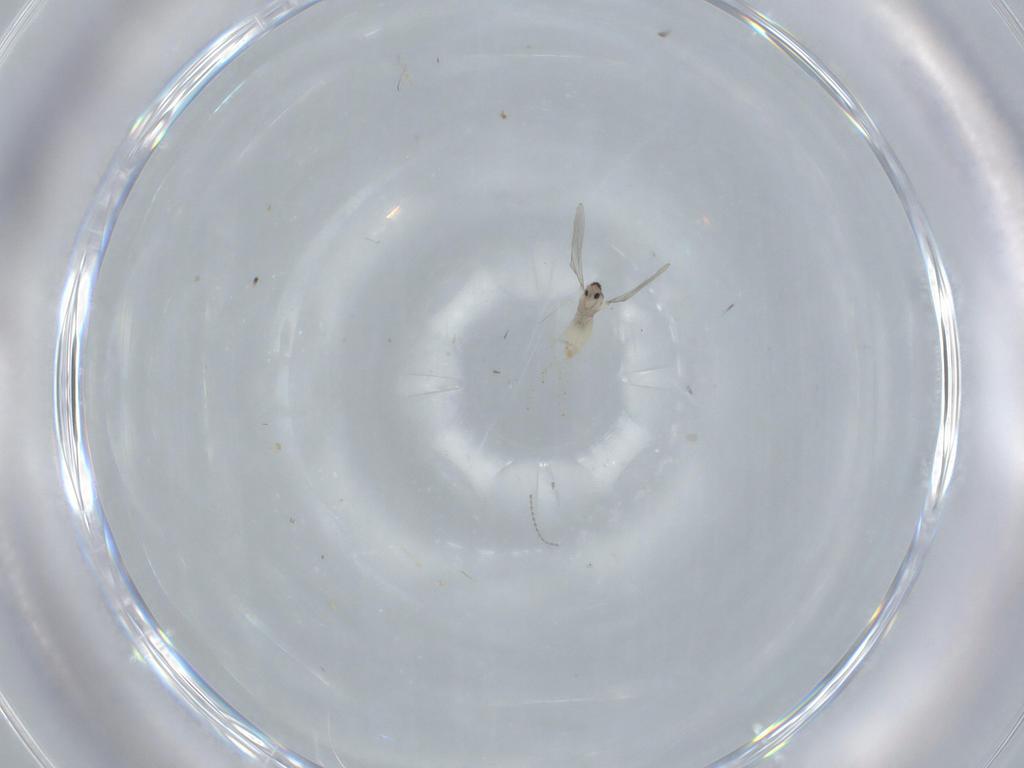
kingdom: Animalia
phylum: Arthropoda
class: Insecta
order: Diptera
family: Cecidomyiidae
